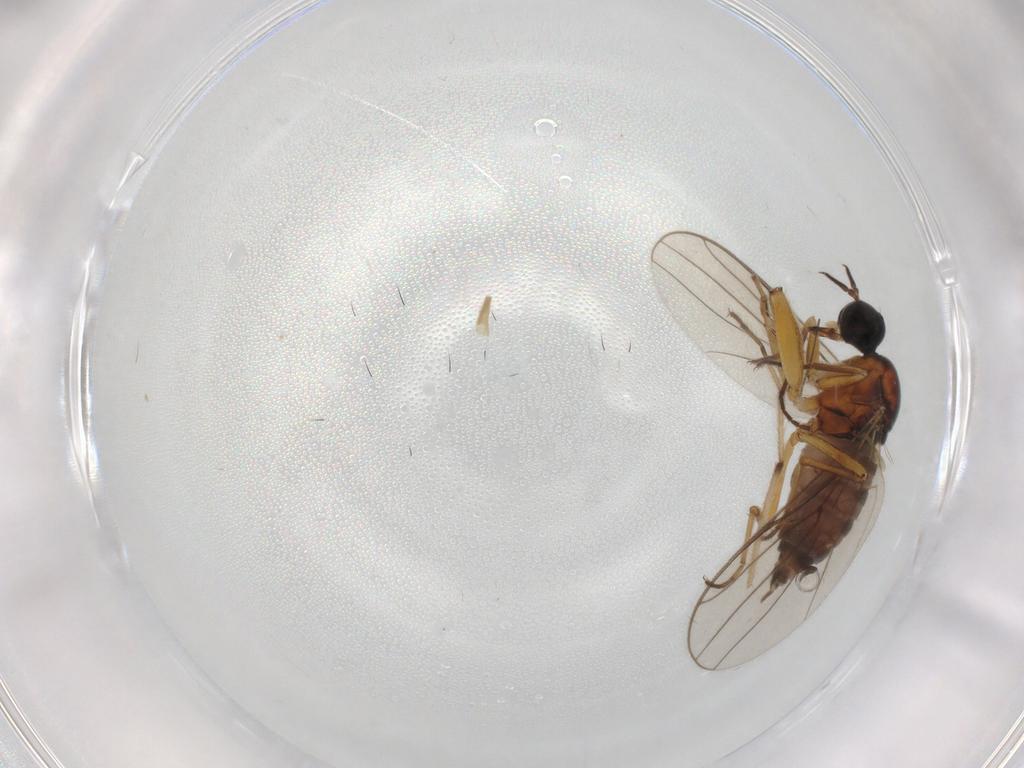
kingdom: Animalia
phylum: Arthropoda
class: Insecta
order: Diptera
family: Hybotidae
